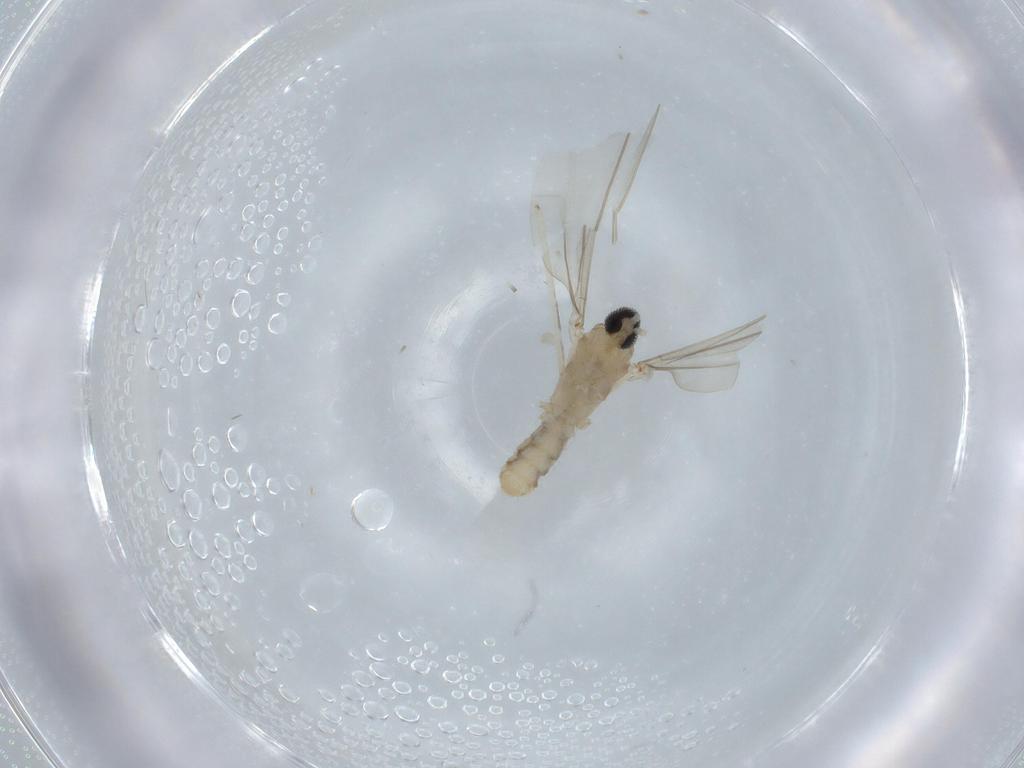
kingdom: Animalia
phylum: Arthropoda
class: Insecta
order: Diptera
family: Cecidomyiidae
